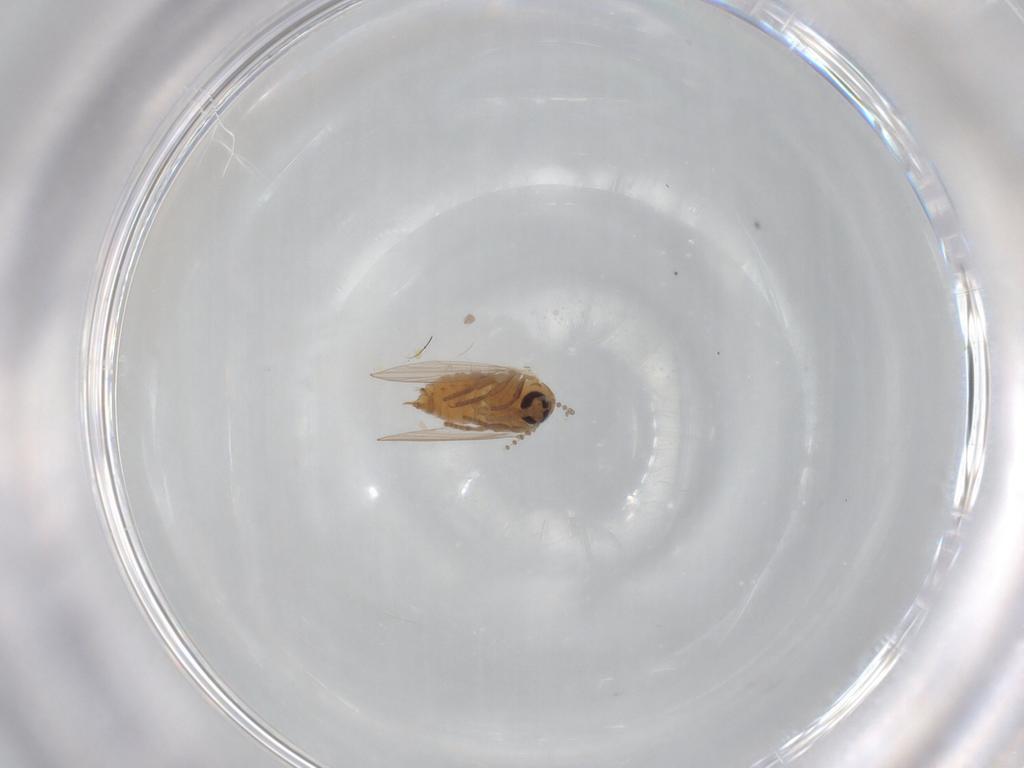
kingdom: Animalia
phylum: Arthropoda
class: Insecta
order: Diptera
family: Psychodidae
